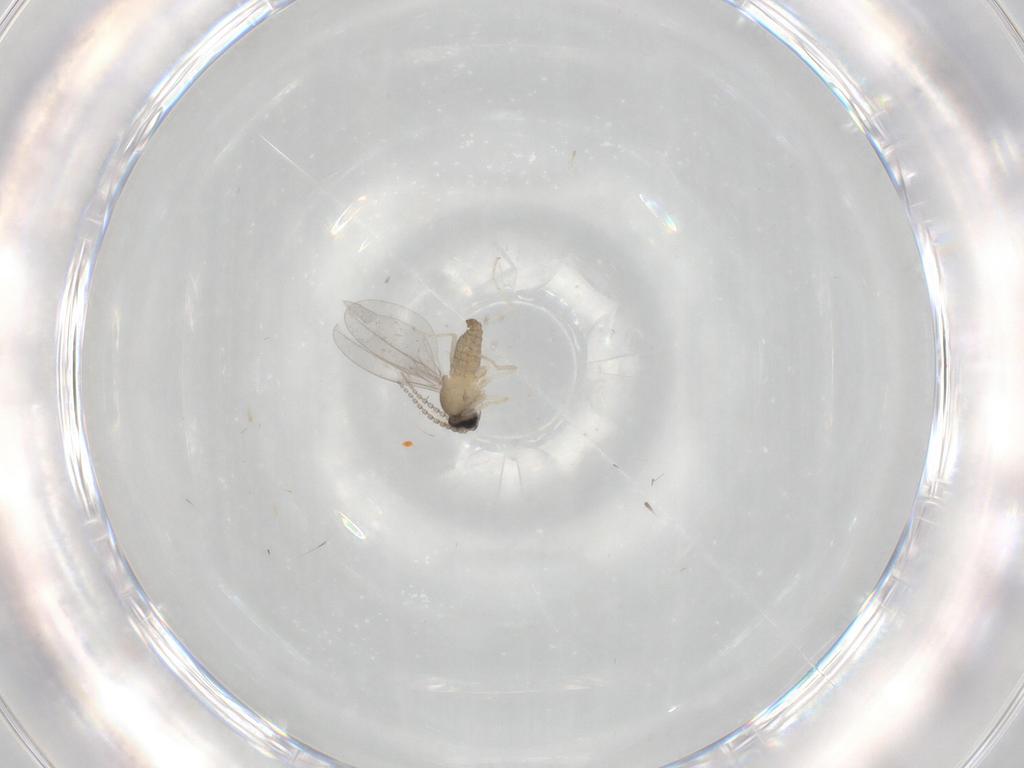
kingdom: Animalia
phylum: Arthropoda
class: Insecta
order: Diptera
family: Cecidomyiidae
